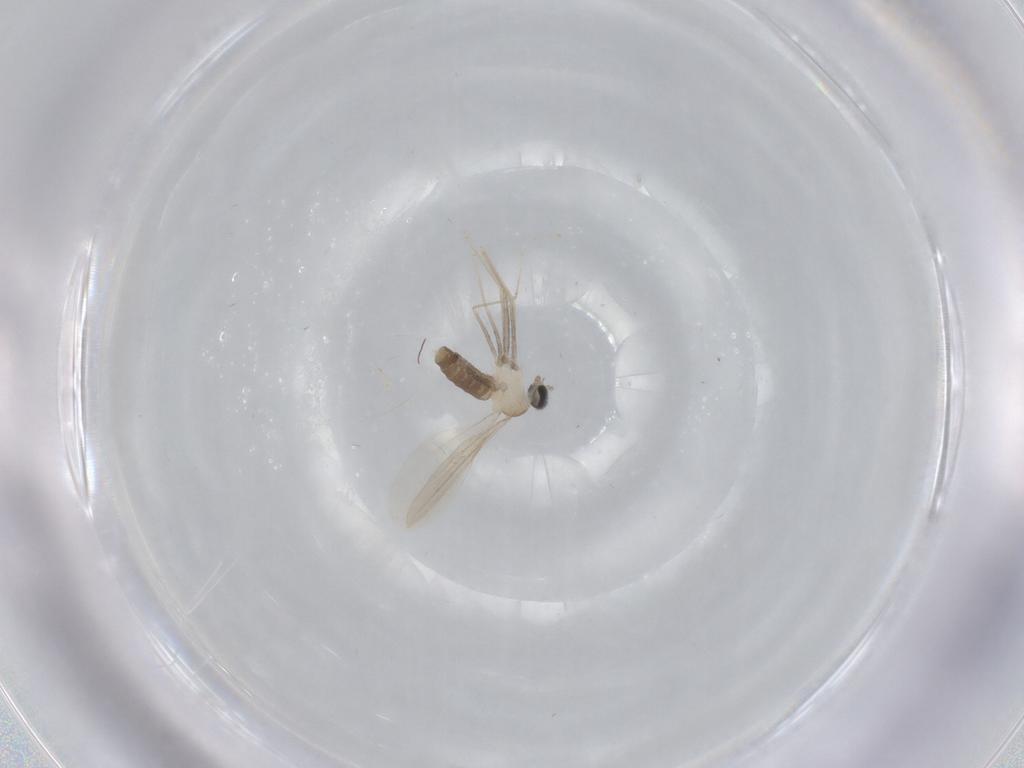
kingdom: Animalia
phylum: Arthropoda
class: Insecta
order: Diptera
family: Cecidomyiidae
